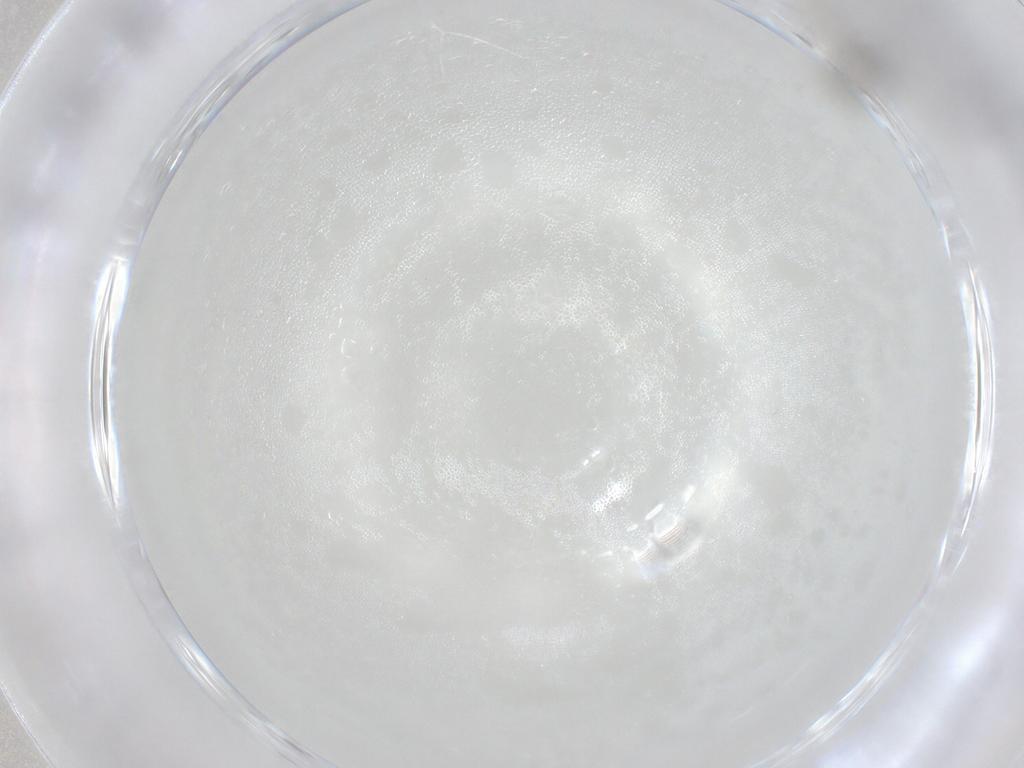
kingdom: Animalia
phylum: Arthropoda
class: Insecta
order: Diptera
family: Cecidomyiidae
